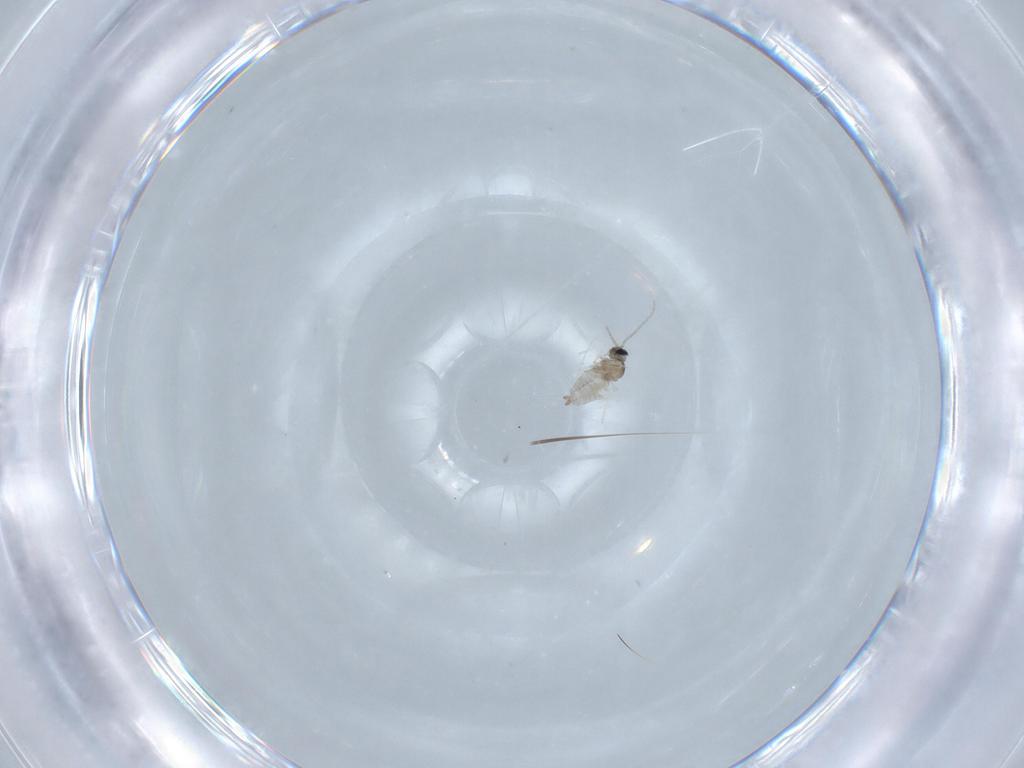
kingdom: Animalia
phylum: Arthropoda
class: Insecta
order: Diptera
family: Cecidomyiidae
